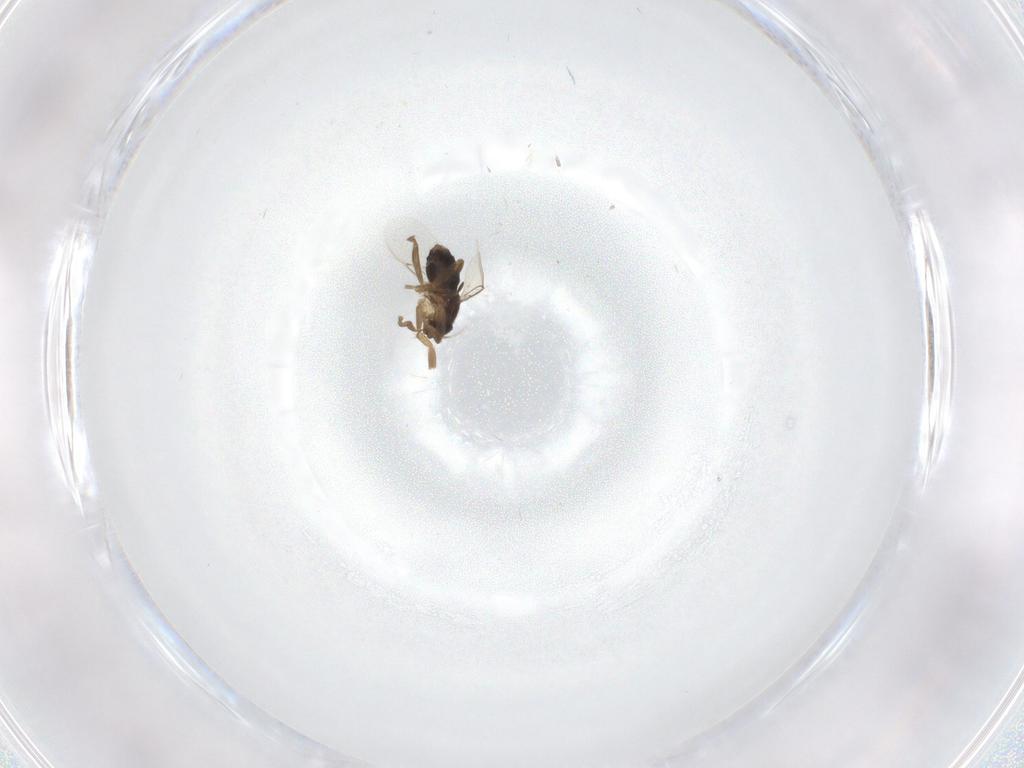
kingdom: Animalia
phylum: Arthropoda
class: Insecta
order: Diptera
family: Phoridae
